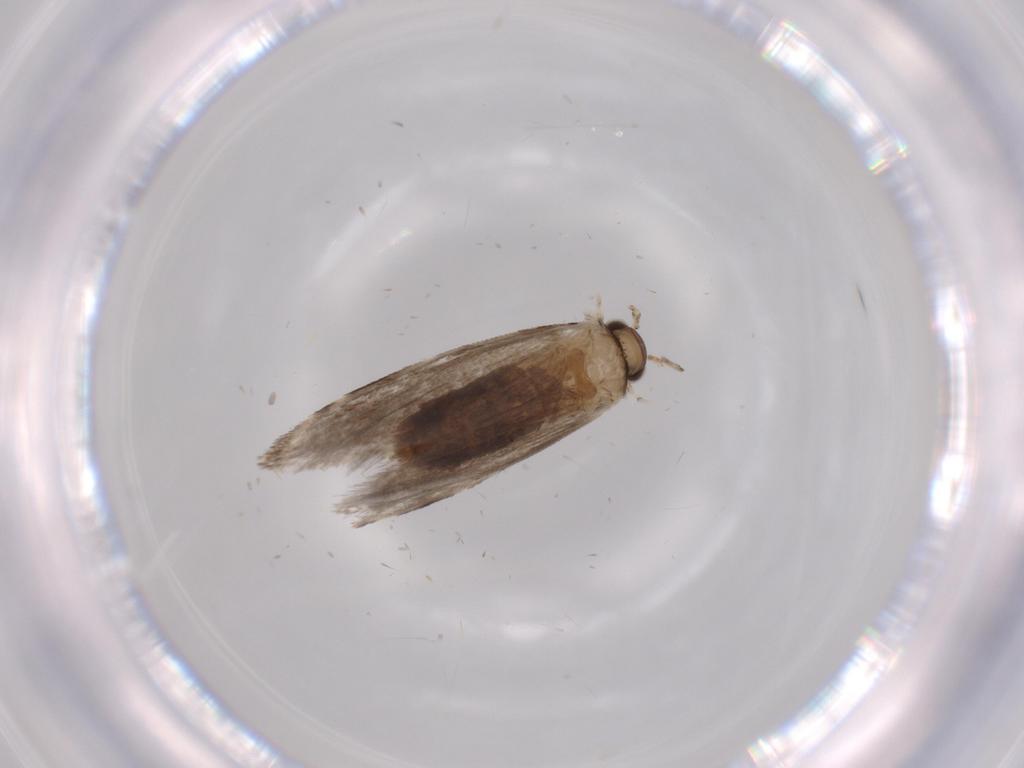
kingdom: Animalia
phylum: Arthropoda
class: Insecta
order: Lepidoptera
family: Tineidae
